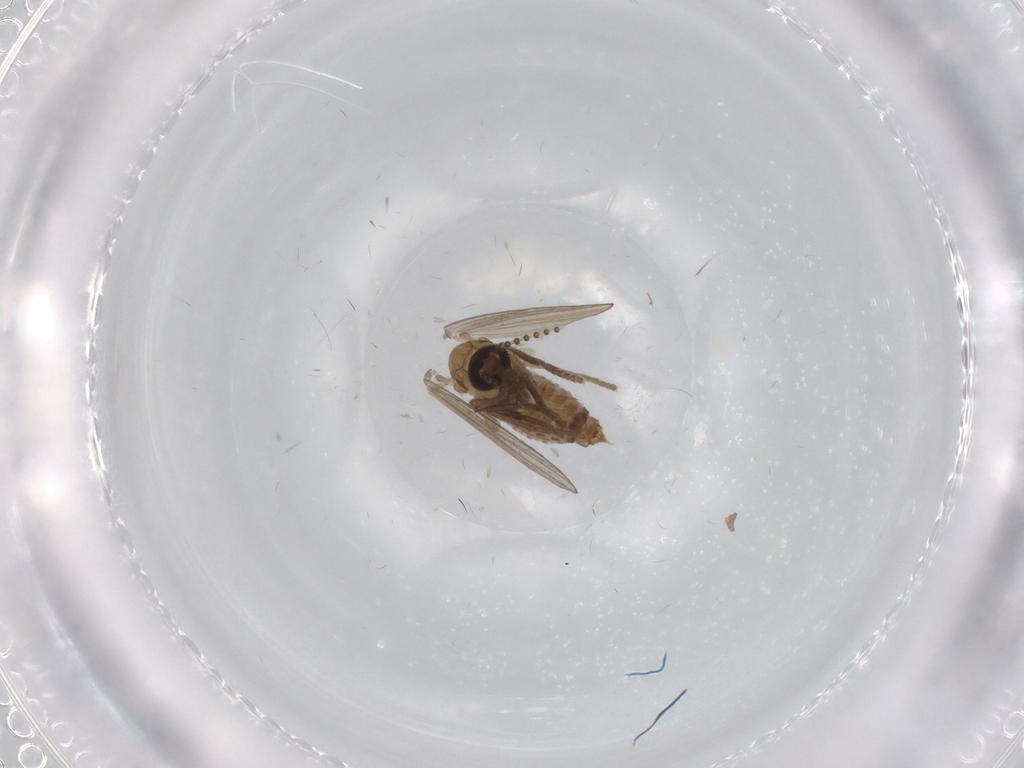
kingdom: Animalia
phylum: Arthropoda
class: Insecta
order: Diptera
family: Psychodidae
